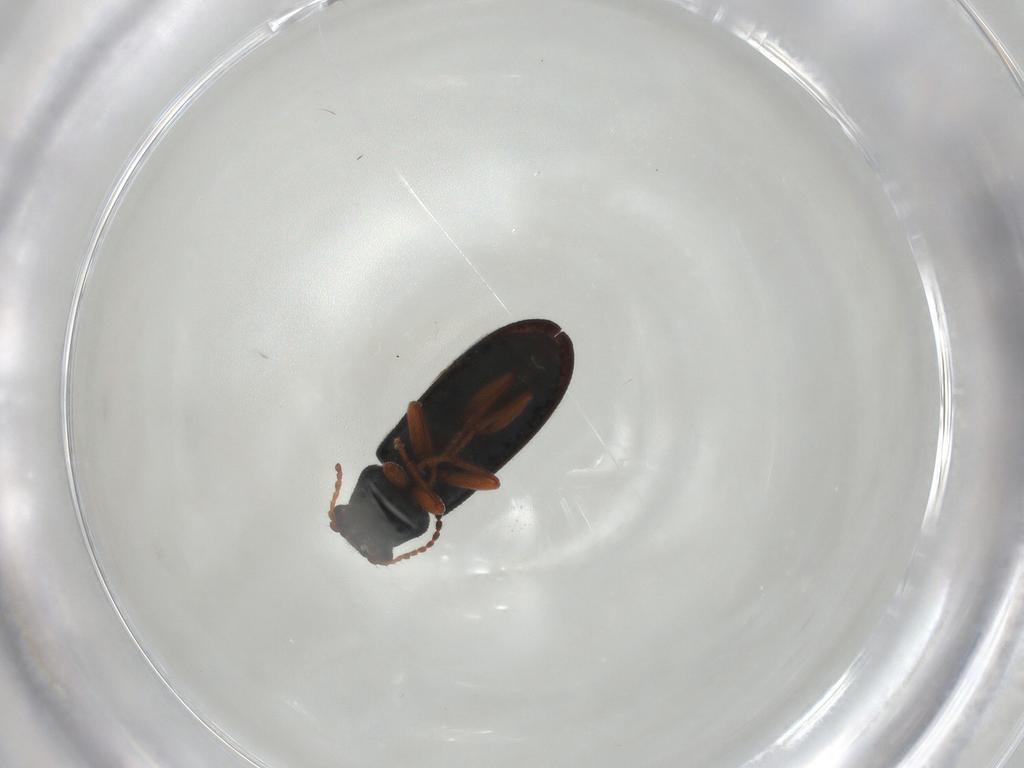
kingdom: Animalia
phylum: Arthropoda
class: Insecta
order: Coleoptera
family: Melyridae
